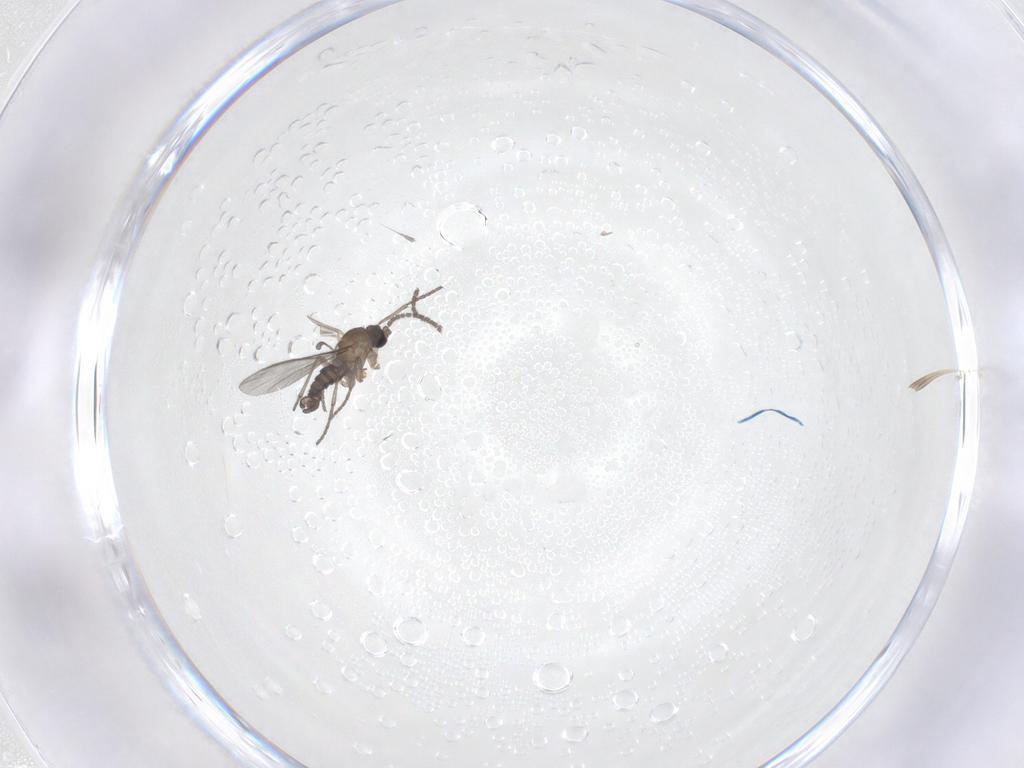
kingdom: Animalia
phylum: Arthropoda
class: Insecta
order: Diptera
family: Sciaridae
